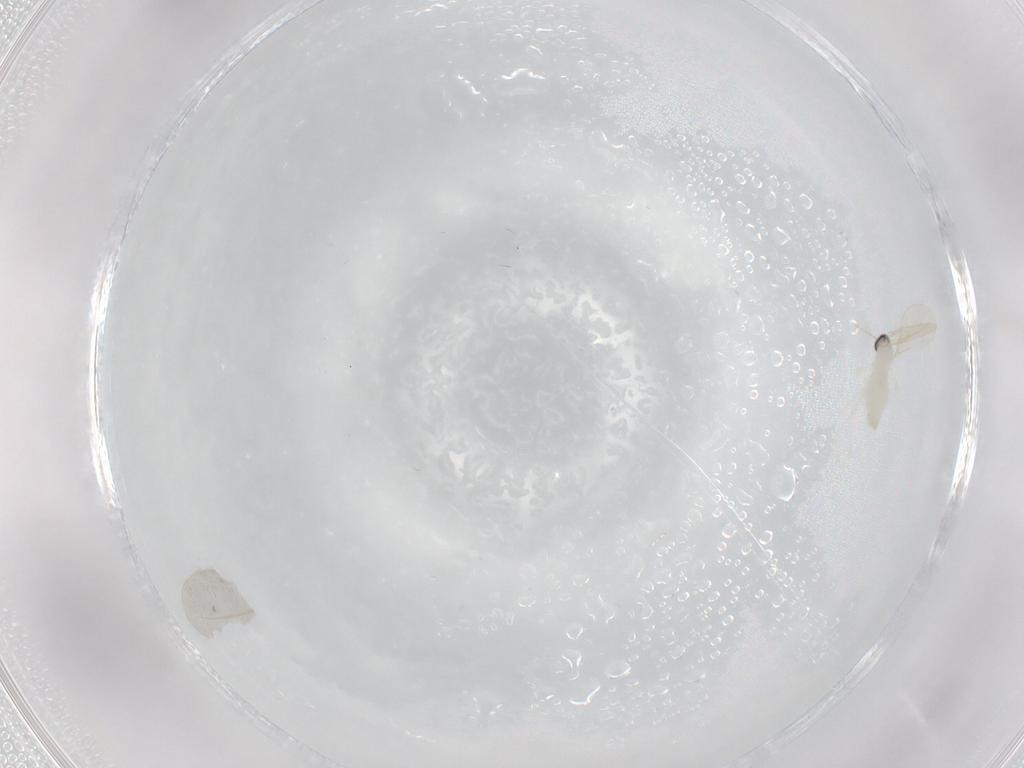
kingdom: Animalia
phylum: Arthropoda
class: Insecta
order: Diptera
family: Cecidomyiidae
